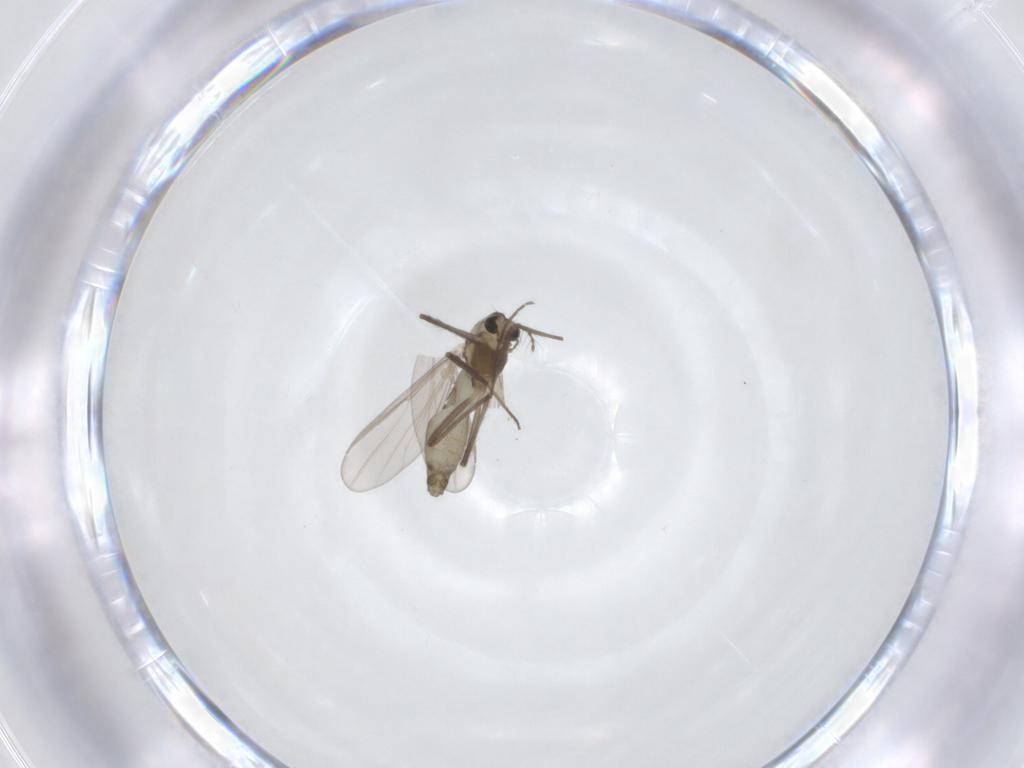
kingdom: Animalia
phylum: Arthropoda
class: Insecta
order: Diptera
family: Chironomidae
